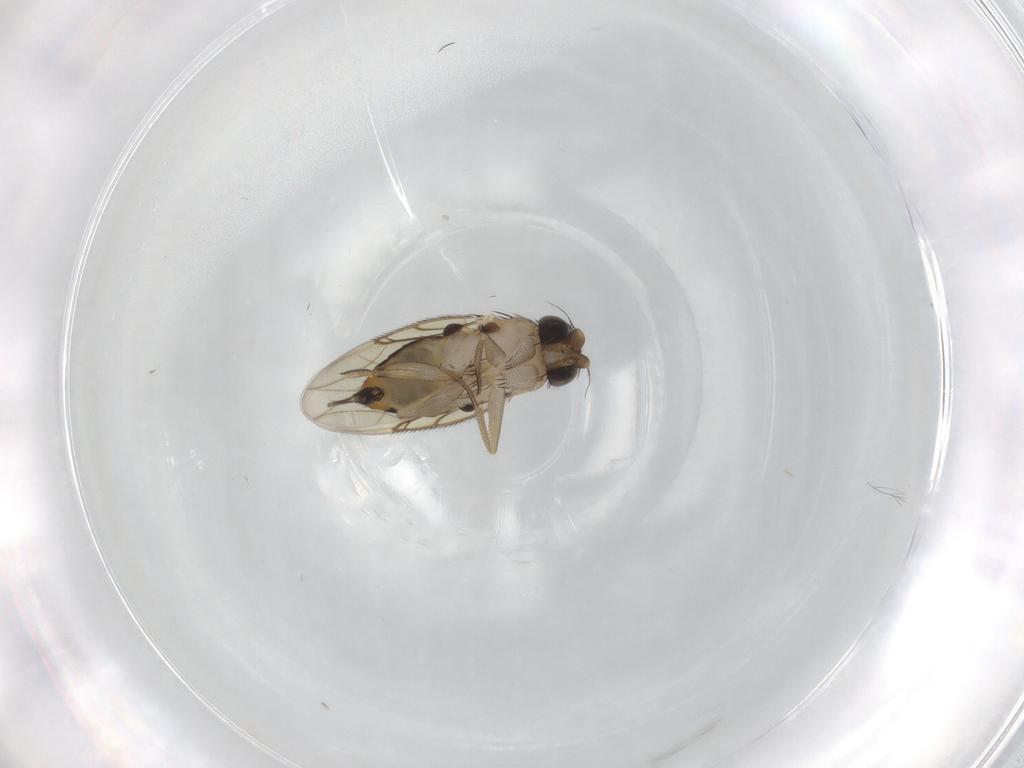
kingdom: Animalia
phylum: Arthropoda
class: Insecta
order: Diptera
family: Phoridae
